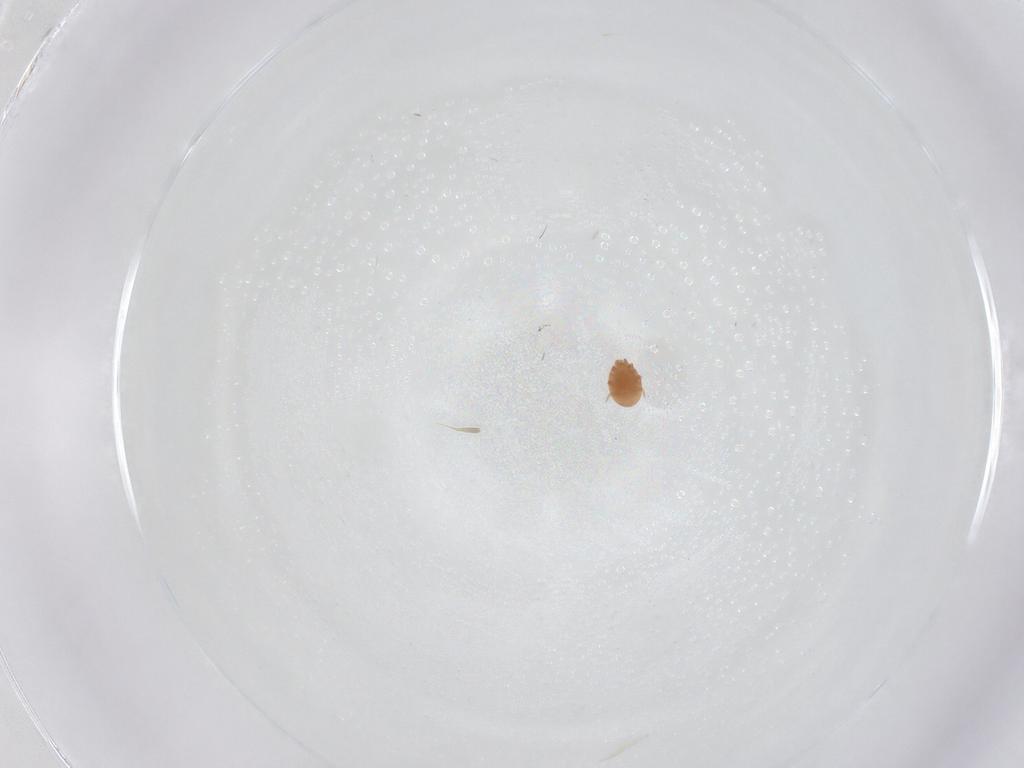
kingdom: Animalia
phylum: Arthropoda
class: Arachnida
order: Mesostigmata
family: Trematuridae
